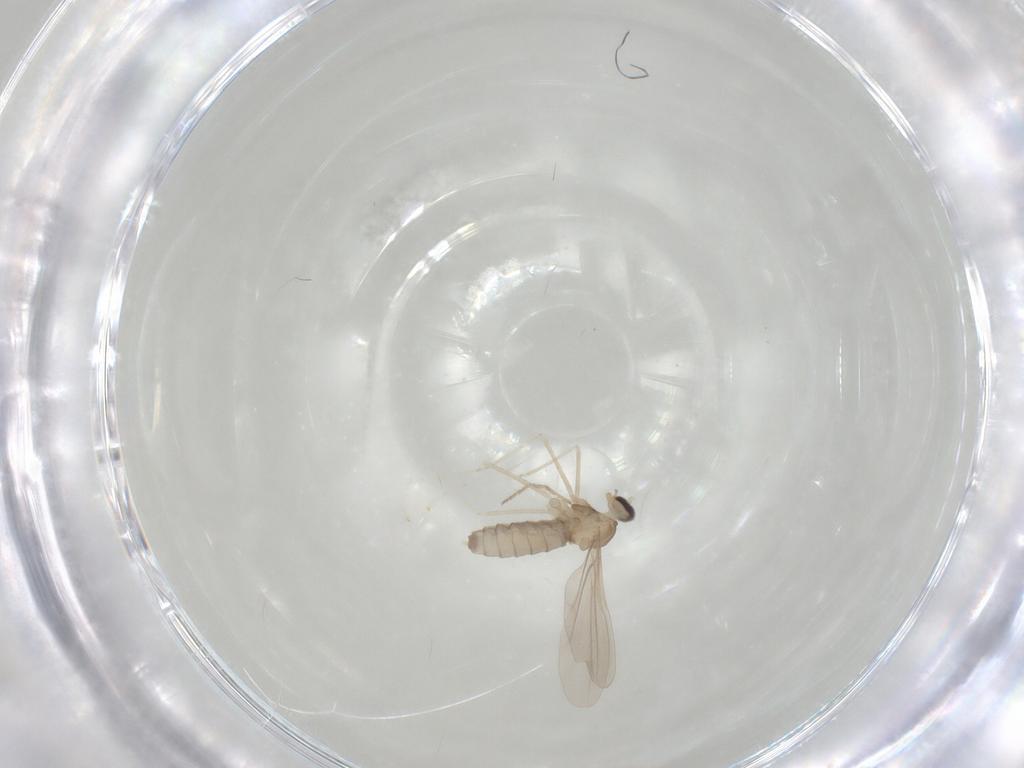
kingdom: Animalia
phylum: Arthropoda
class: Insecta
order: Diptera
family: Cecidomyiidae
